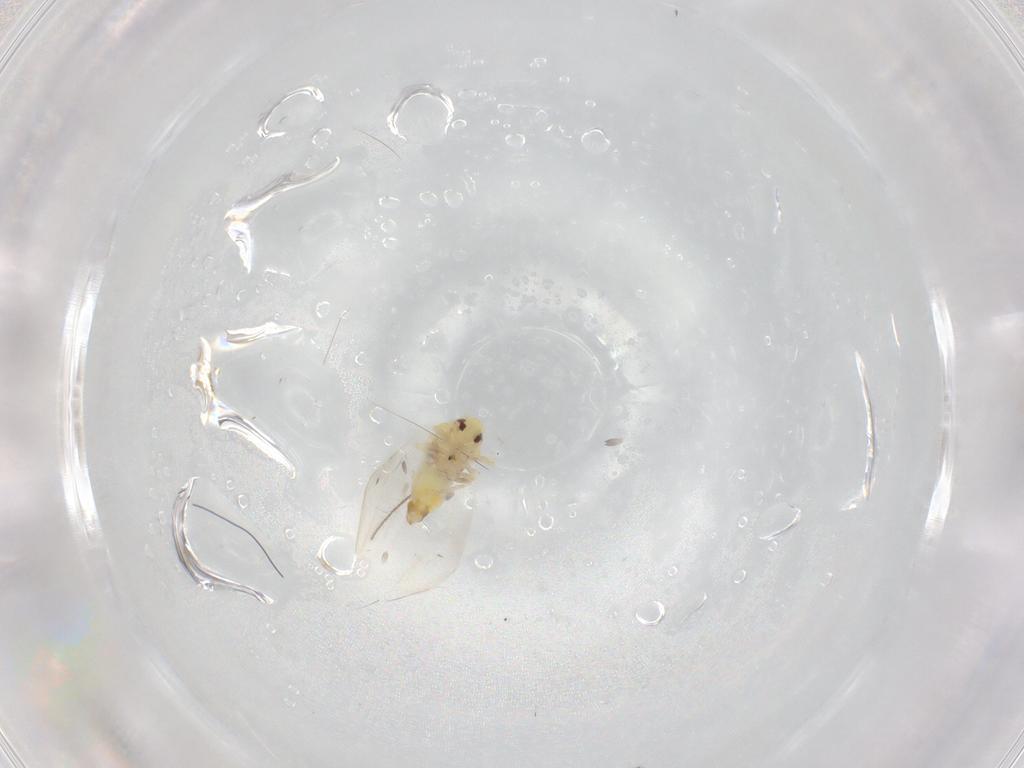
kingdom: Animalia
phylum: Arthropoda
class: Insecta
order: Hemiptera
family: Aleyrodidae
